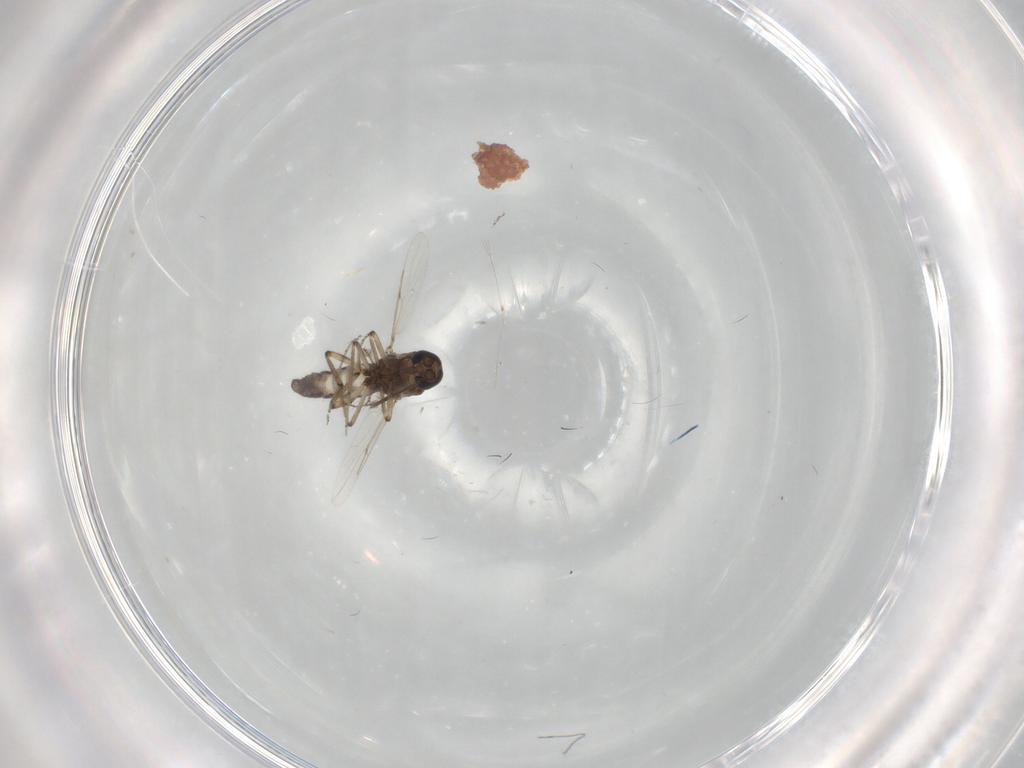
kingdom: Animalia
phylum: Arthropoda
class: Insecta
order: Diptera
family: Ceratopogonidae
